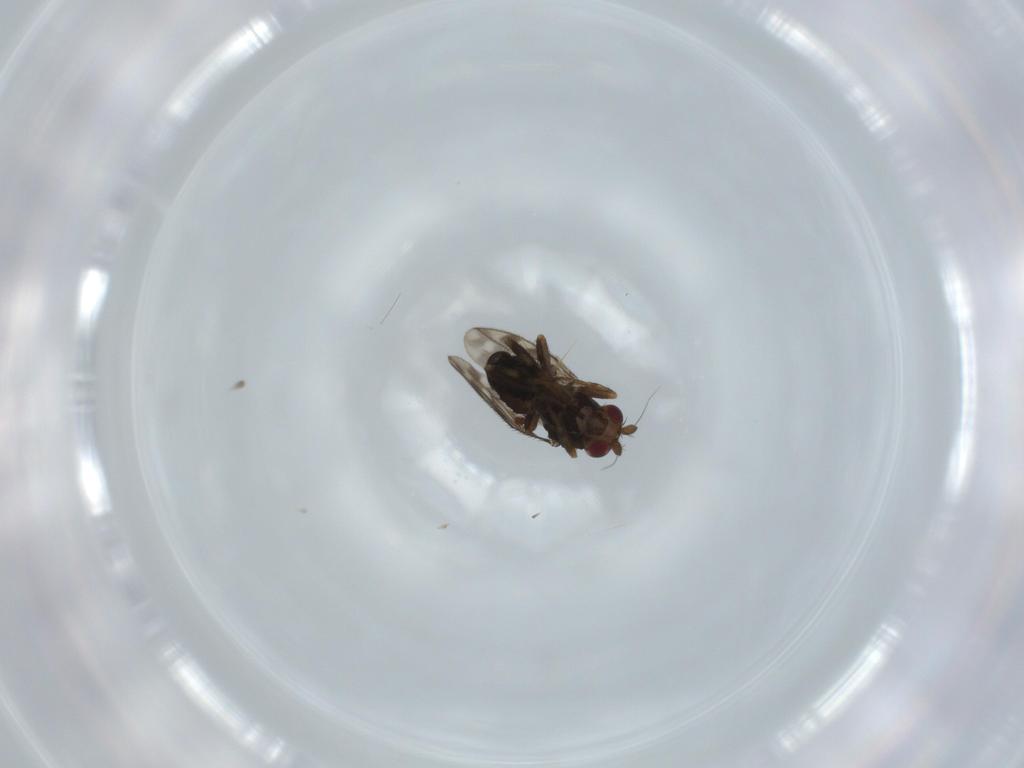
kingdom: Animalia
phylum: Arthropoda
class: Insecta
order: Diptera
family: Sphaeroceridae
